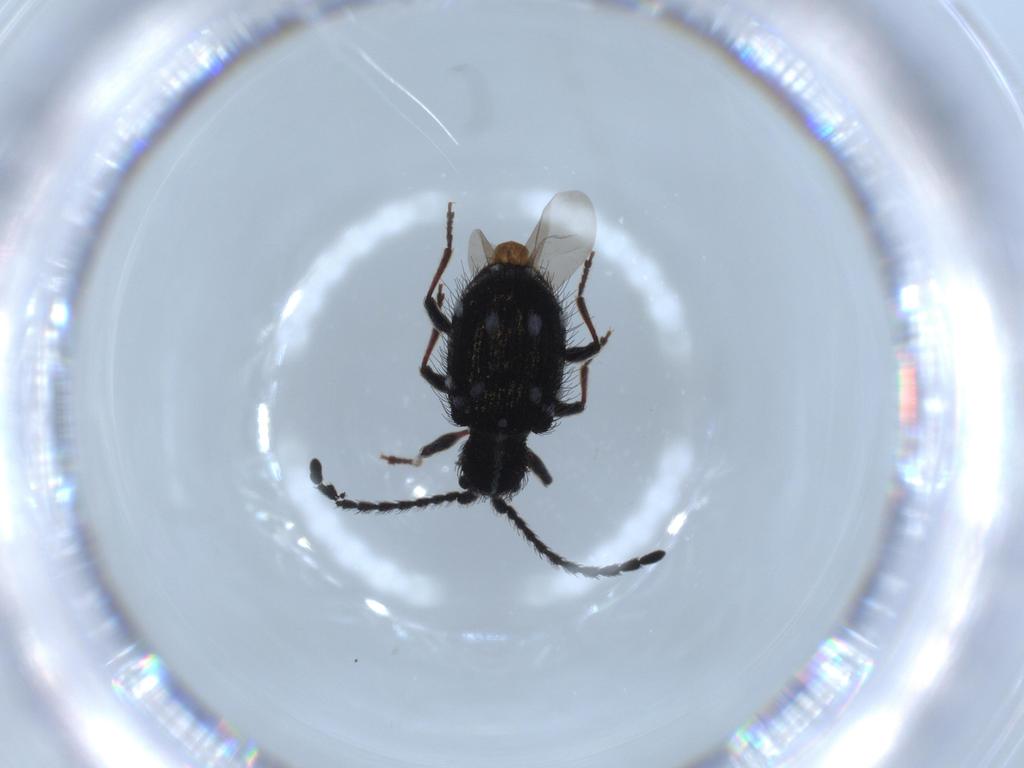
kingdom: Animalia
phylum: Arthropoda
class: Insecta
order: Coleoptera
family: Ptinidae
